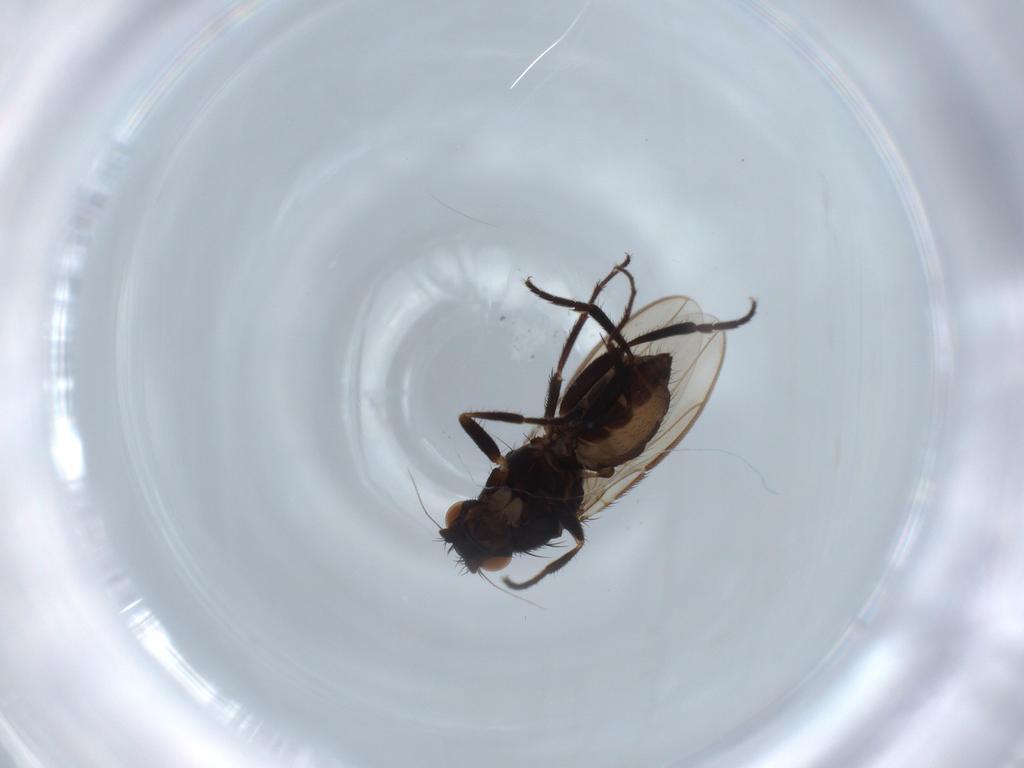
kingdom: Animalia
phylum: Arthropoda
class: Insecta
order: Diptera
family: Sphaeroceridae
